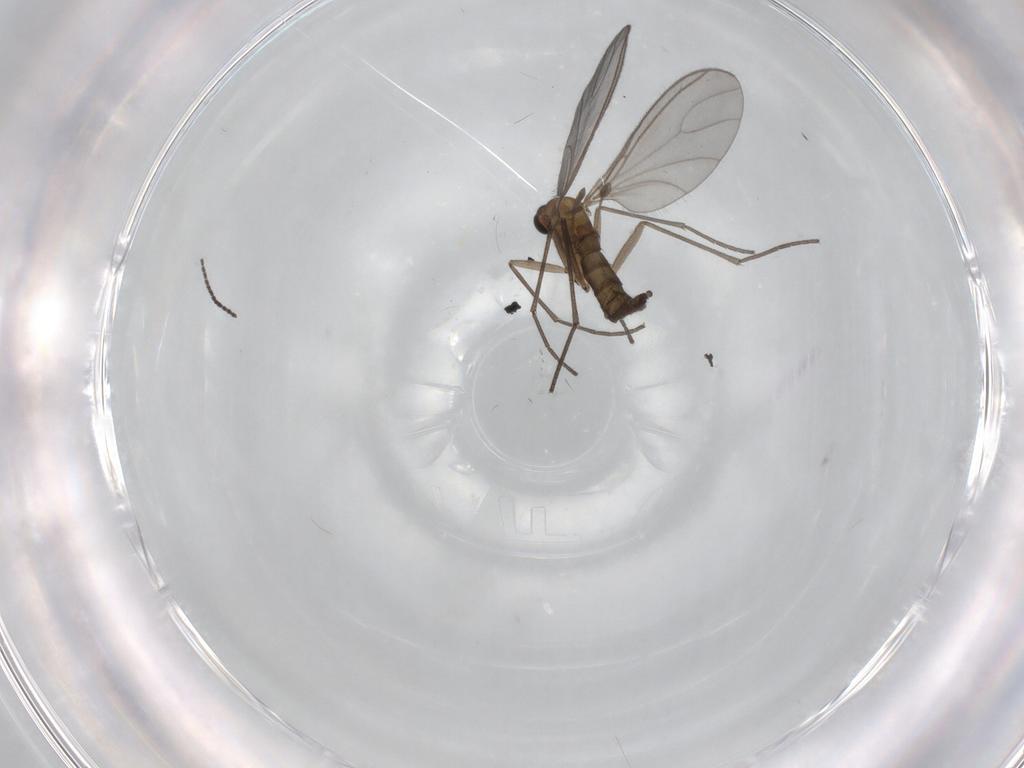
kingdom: Animalia
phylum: Arthropoda
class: Insecta
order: Diptera
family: Sciaridae
